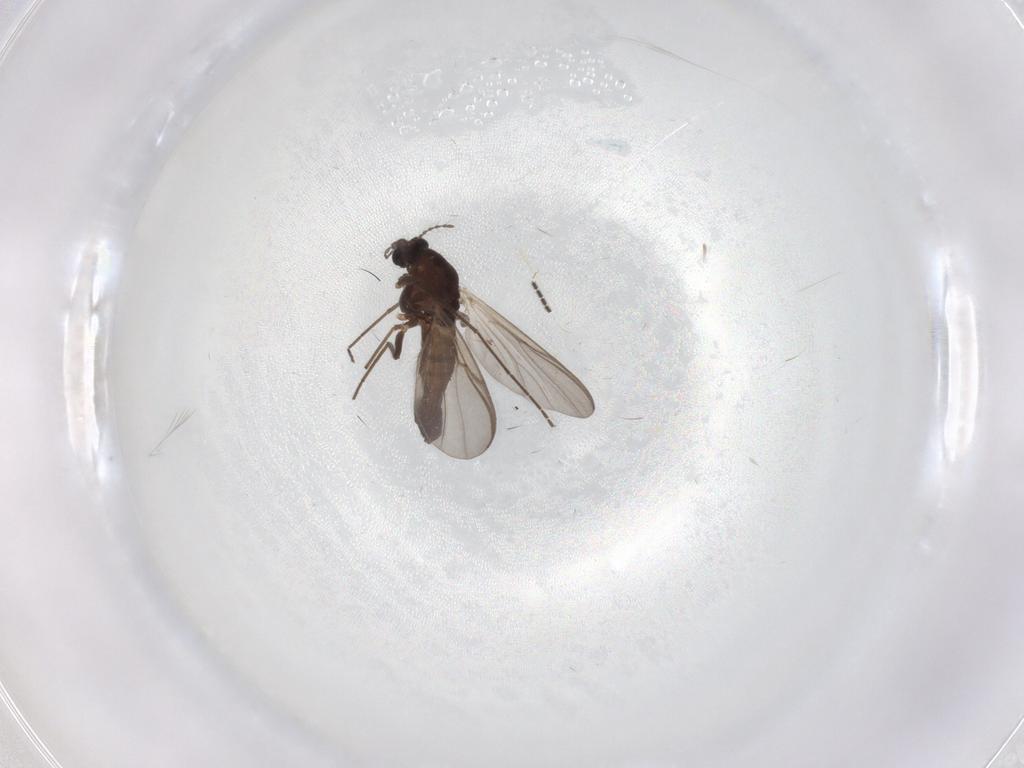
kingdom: Animalia
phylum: Arthropoda
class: Insecta
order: Diptera
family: Chironomidae
